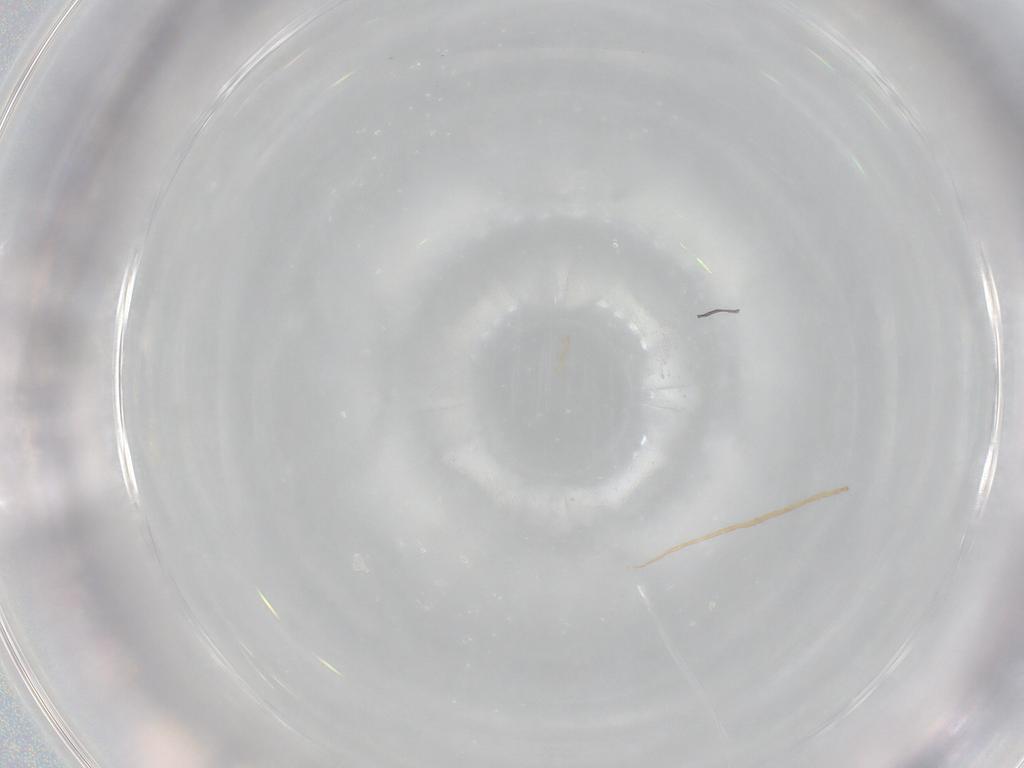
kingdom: Animalia
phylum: Arthropoda
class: Insecta
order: Diptera
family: Cecidomyiidae
